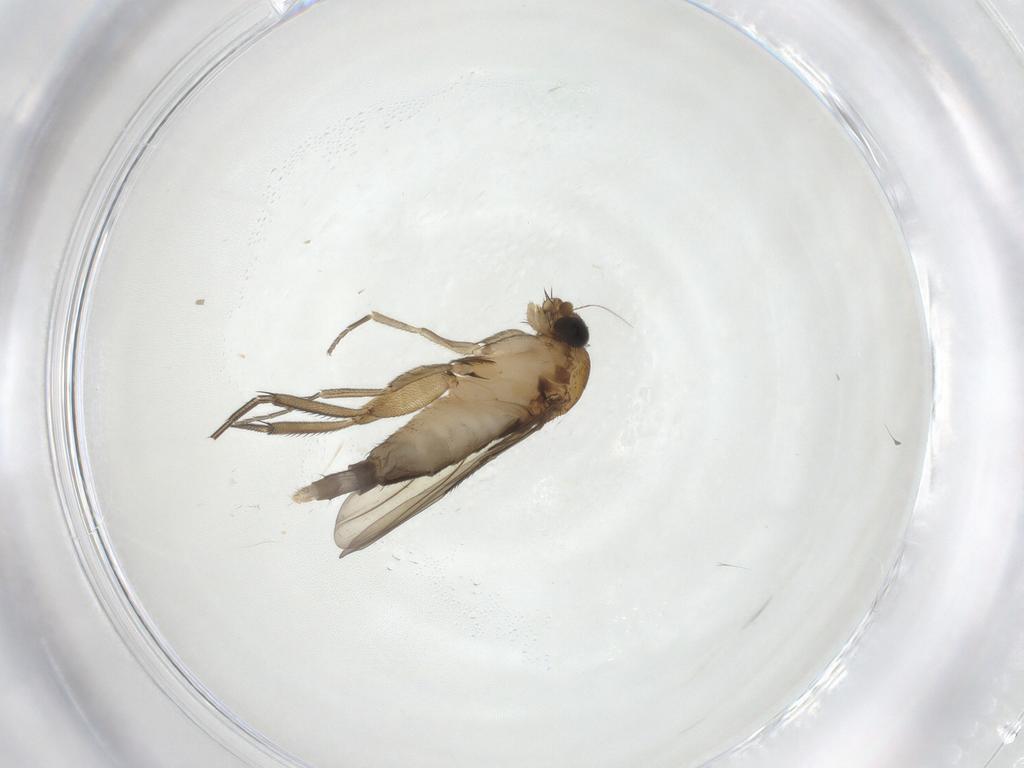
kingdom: Animalia
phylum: Arthropoda
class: Insecta
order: Diptera
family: Phoridae
